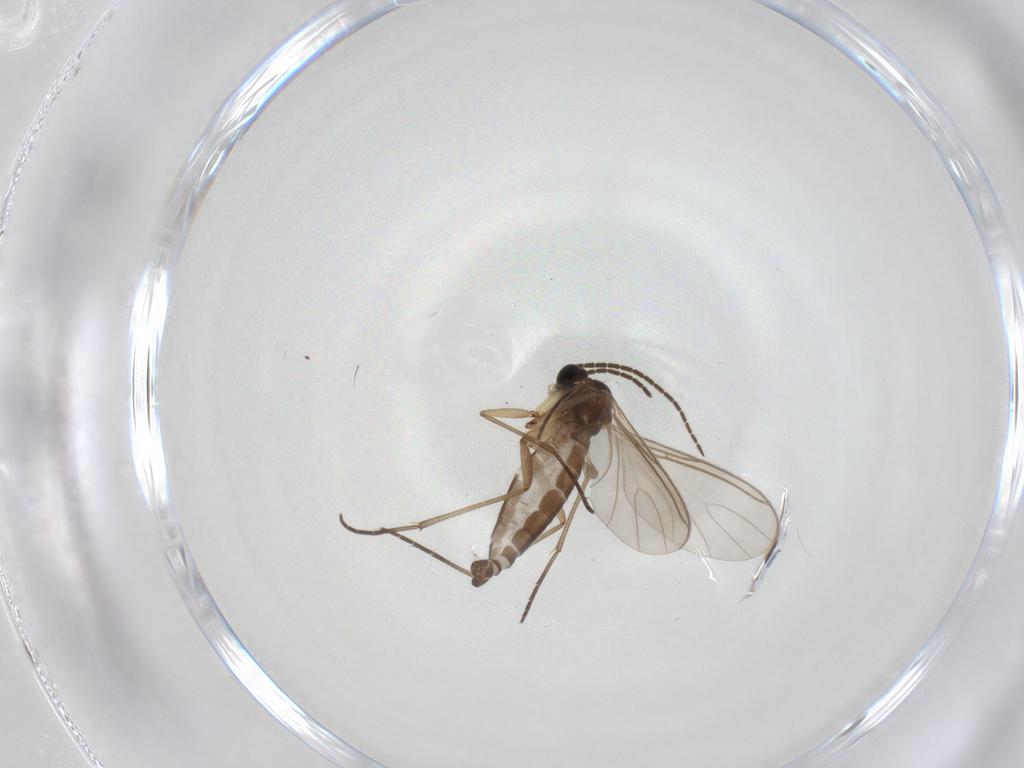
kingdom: Animalia
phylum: Arthropoda
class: Insecta
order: Diptera
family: Sciaridae
